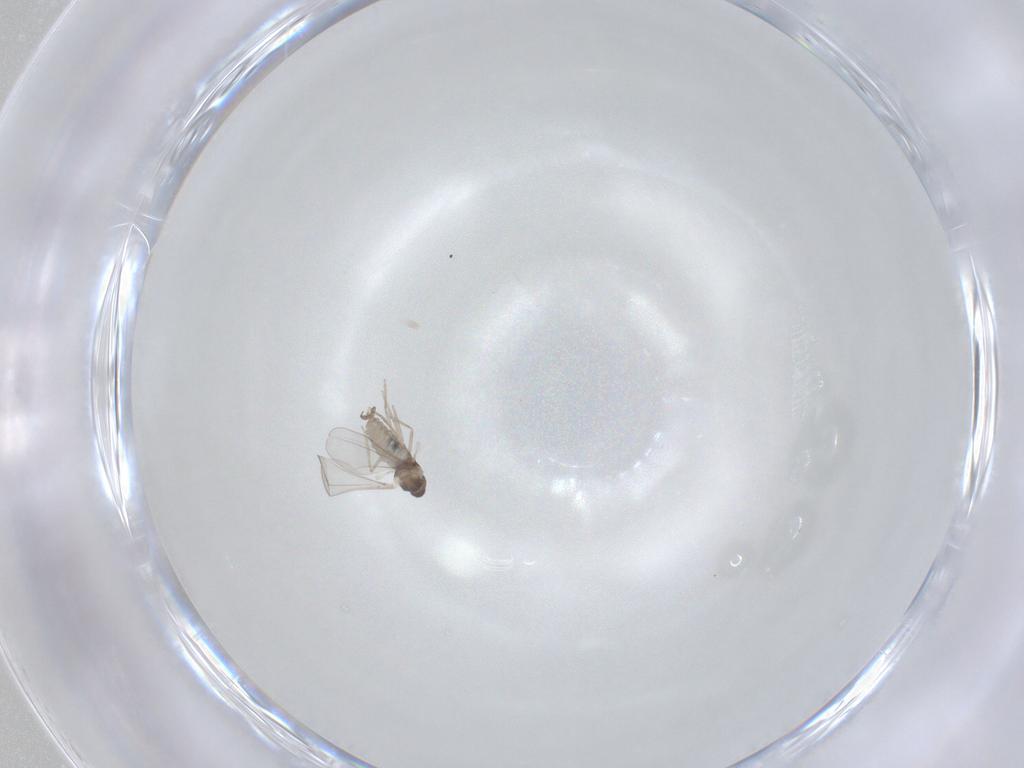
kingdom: Animalia
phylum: Arthropoda
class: Insecta
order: Diptera
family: Cecidomyiidae
